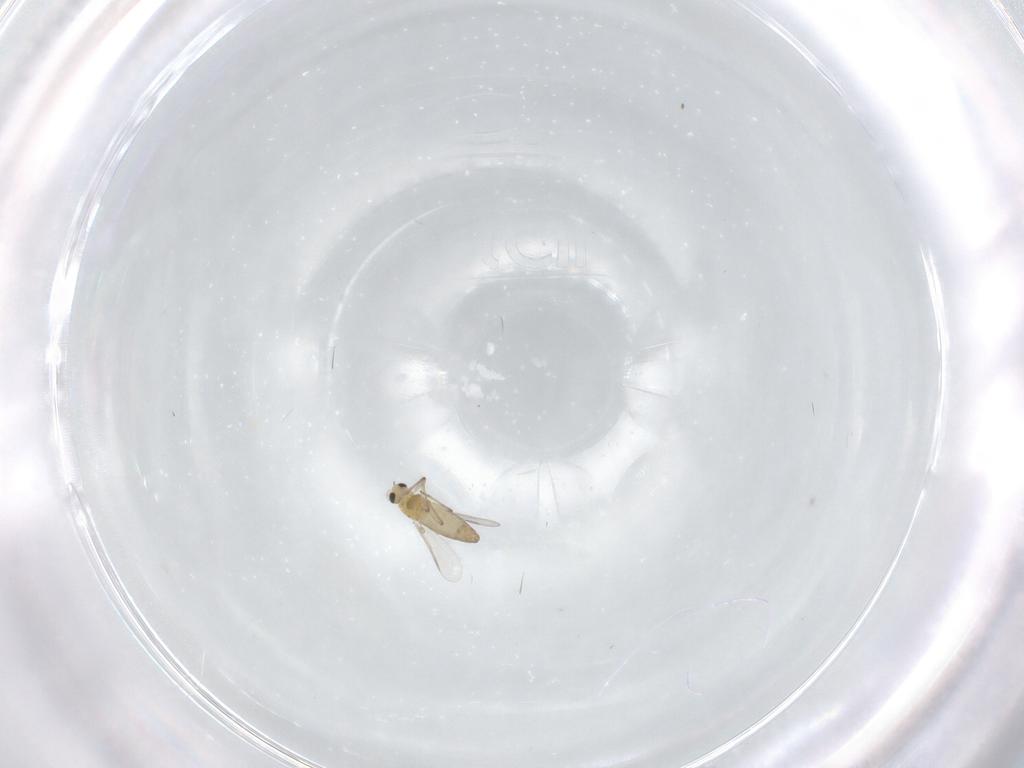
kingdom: Animalia
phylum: Arthropoda
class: Insecta
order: Diptera
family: Chironomidae
